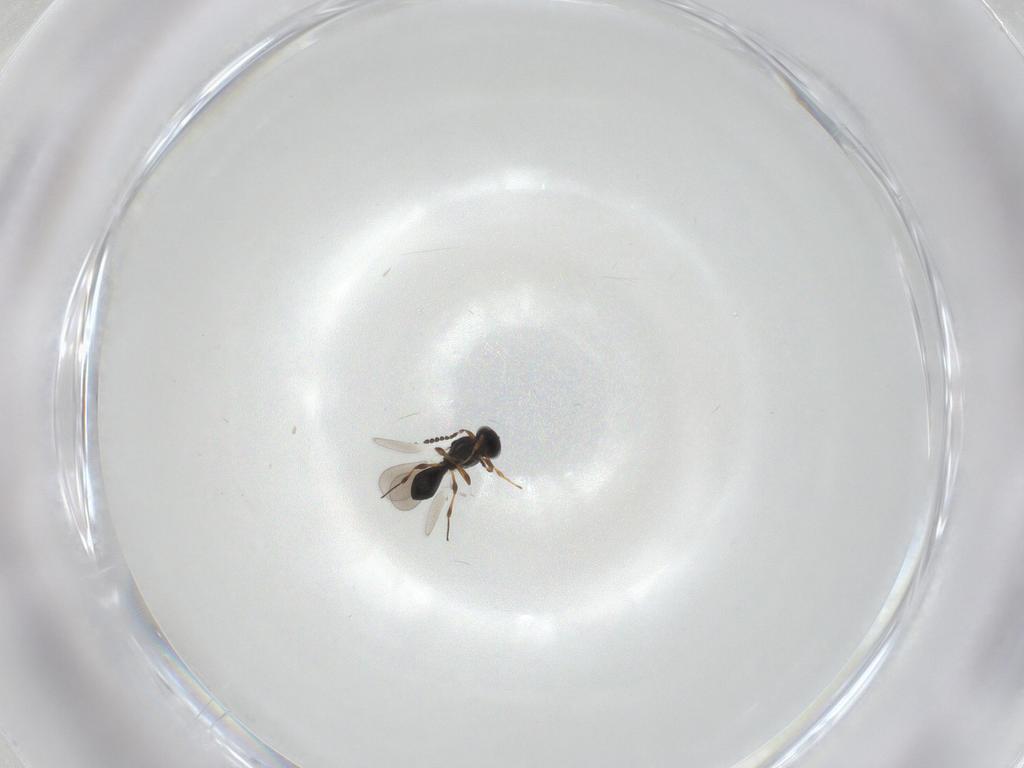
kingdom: Animalia
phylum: Arthropoda
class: Insecta
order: Hymenoptera
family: Platygastridae
